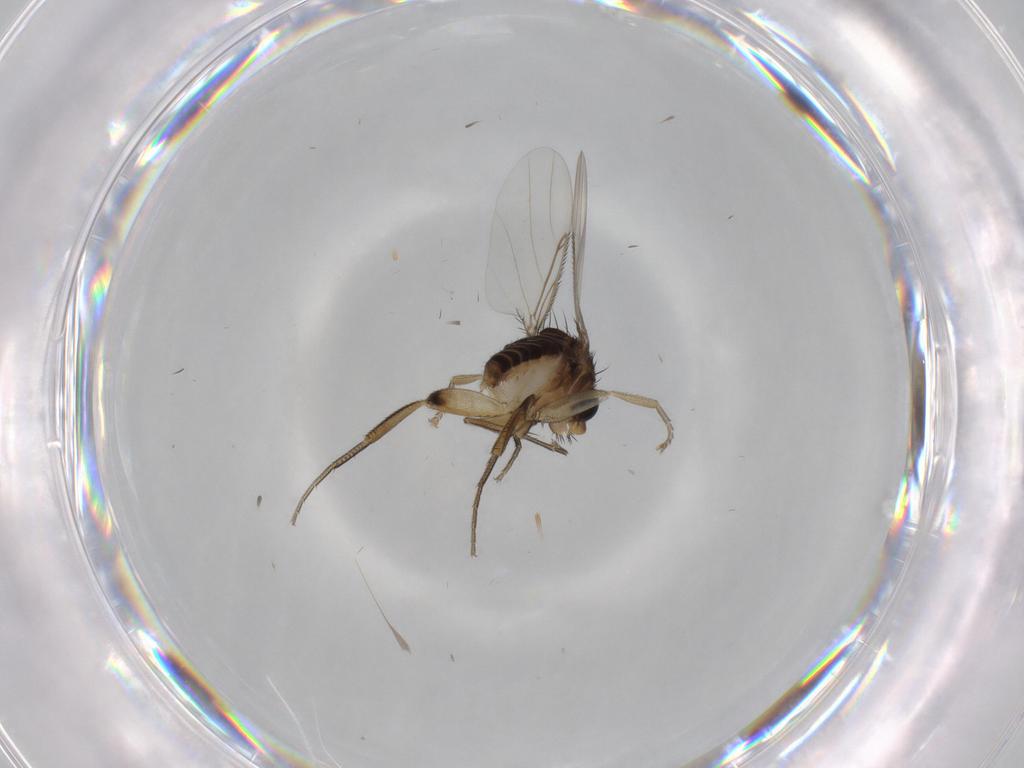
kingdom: Animalia
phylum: Arthropoda
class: Insecta
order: Diptera
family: Phoridae
